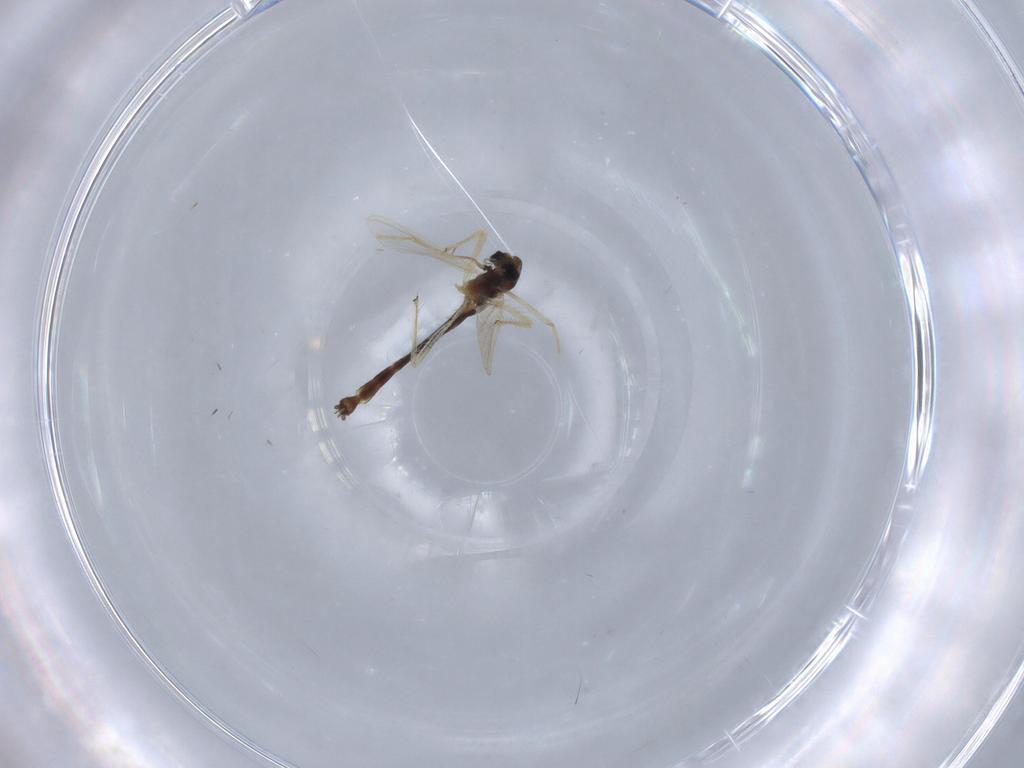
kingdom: Animalia
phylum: Arthropoda
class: Insecta
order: Diptera
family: Chironomidae
